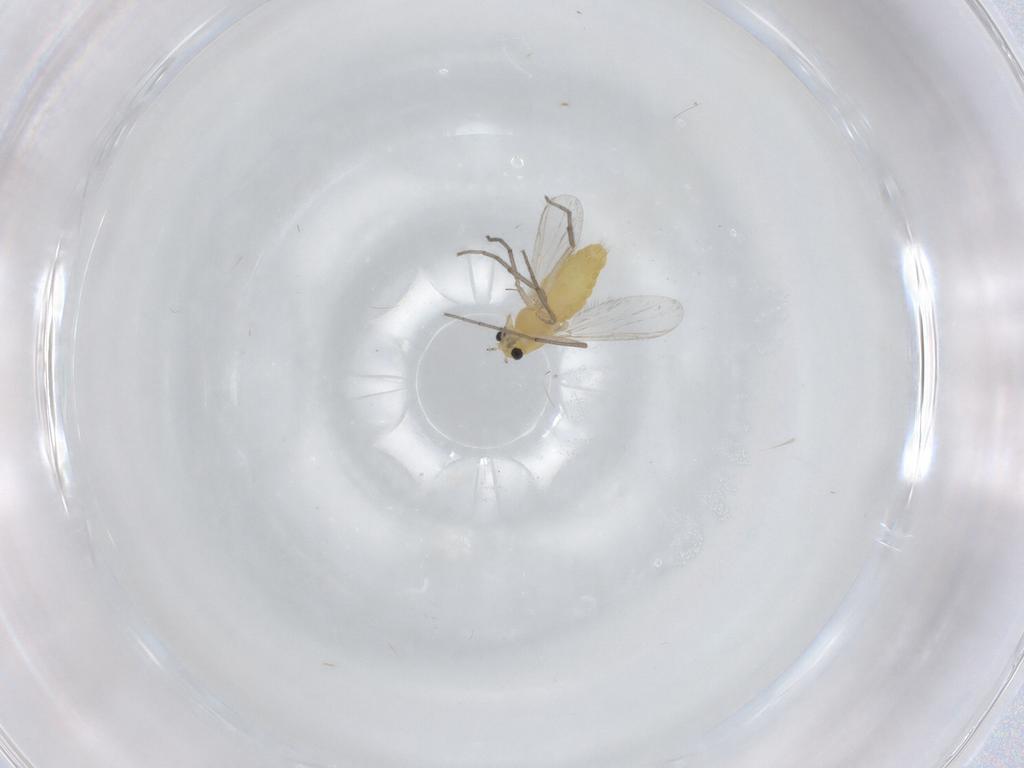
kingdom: Animalia
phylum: Arthropoda
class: Insecta
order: Diptera
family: Chironomidae
